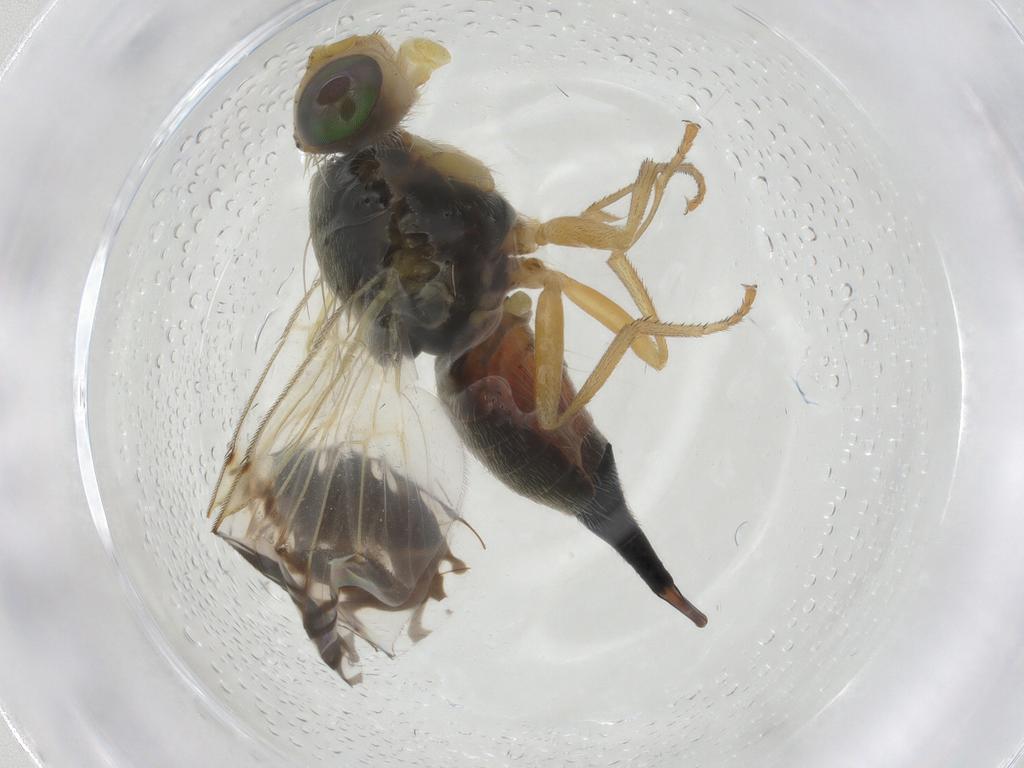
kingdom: Animalia
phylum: Arthropoda
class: Insecta
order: Diptera
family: Tephritidae
